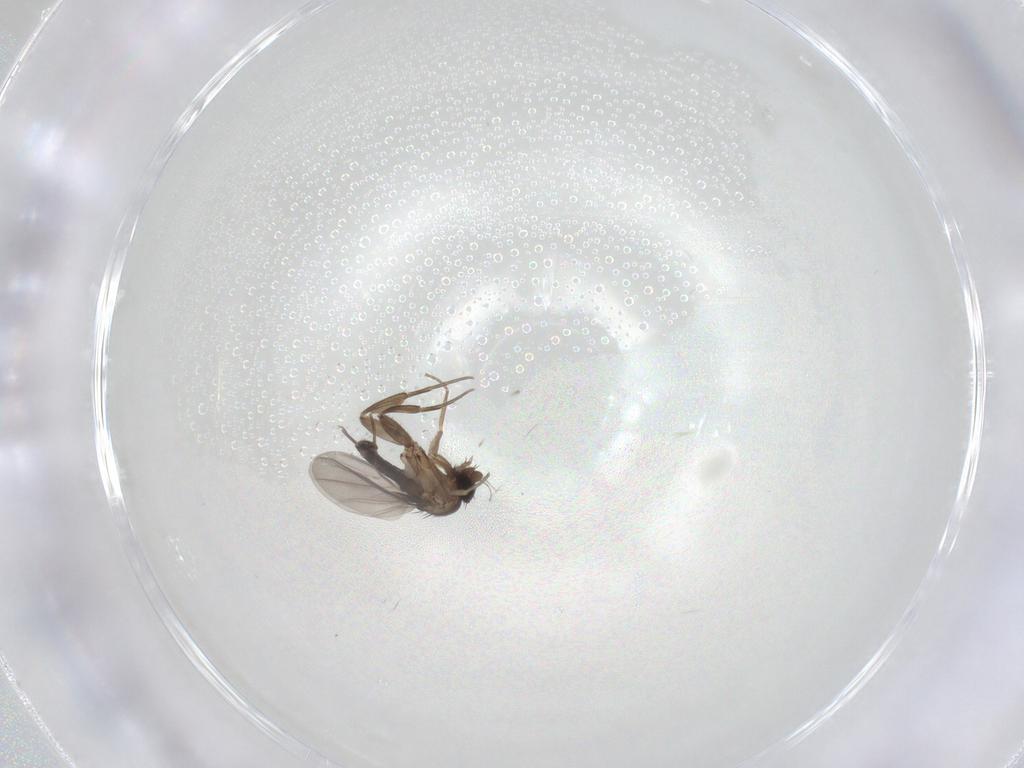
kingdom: Animalia
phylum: Arthropoda
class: Insecta
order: Diptera
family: Phoridae
